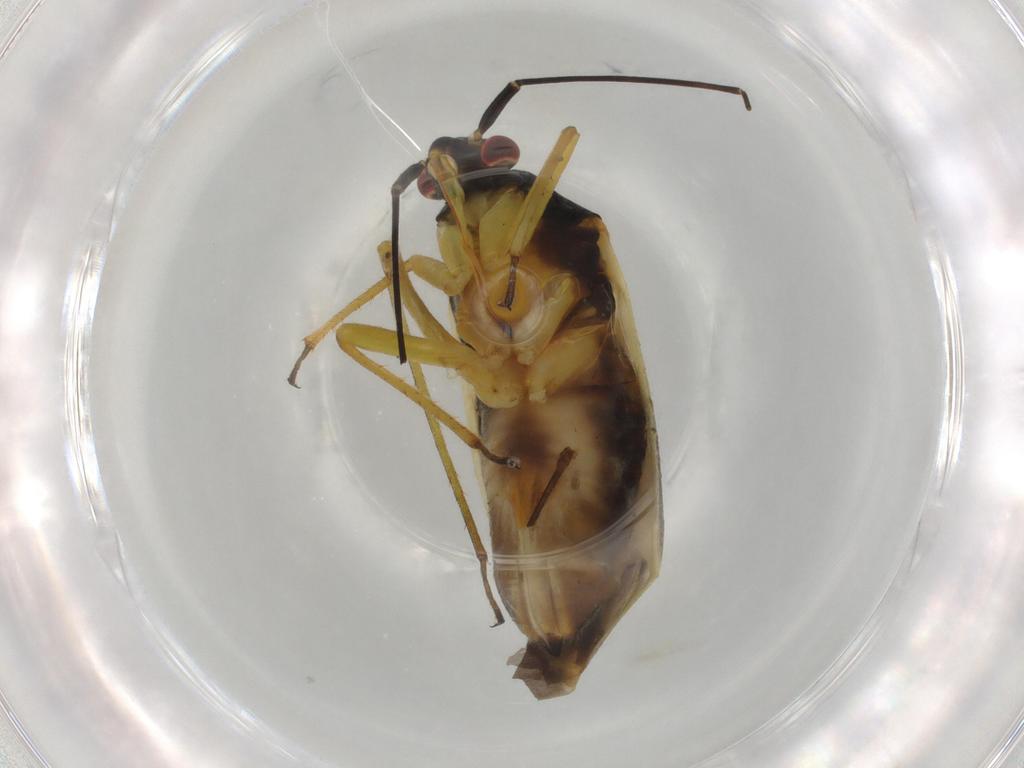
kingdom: Animalia
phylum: Arthropoda
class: Insecta
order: Hemiptera
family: Miridae
